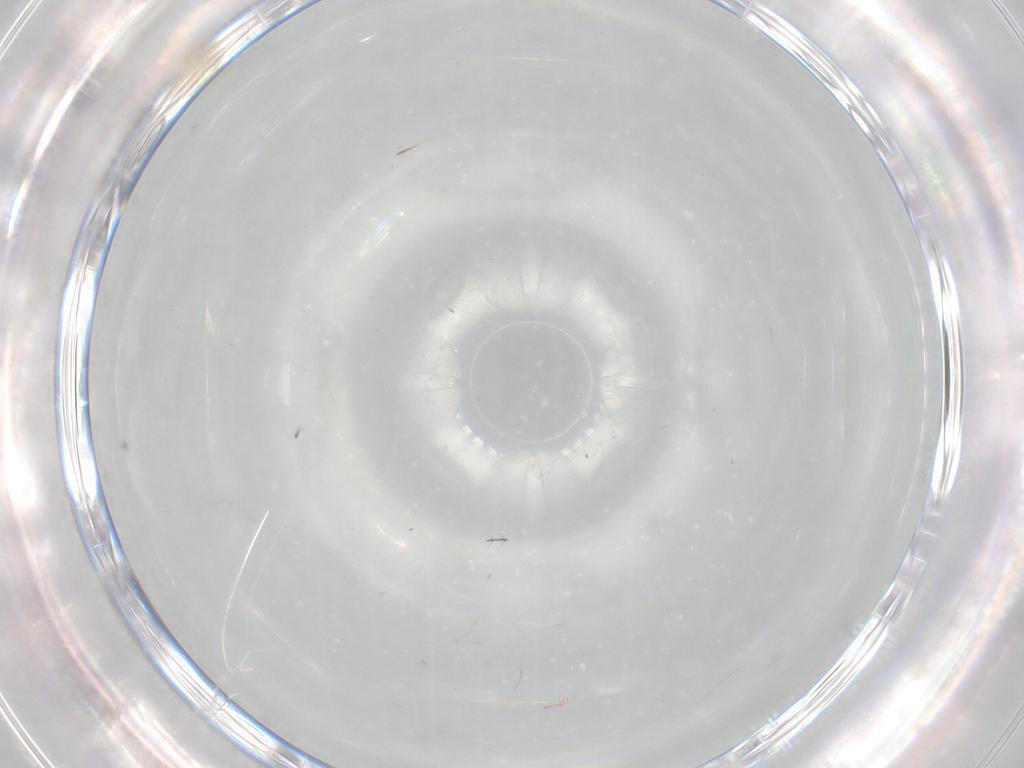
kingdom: Animalia
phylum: Arthropoda
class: Insecta
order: Diptera
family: Cecidomyiidae
